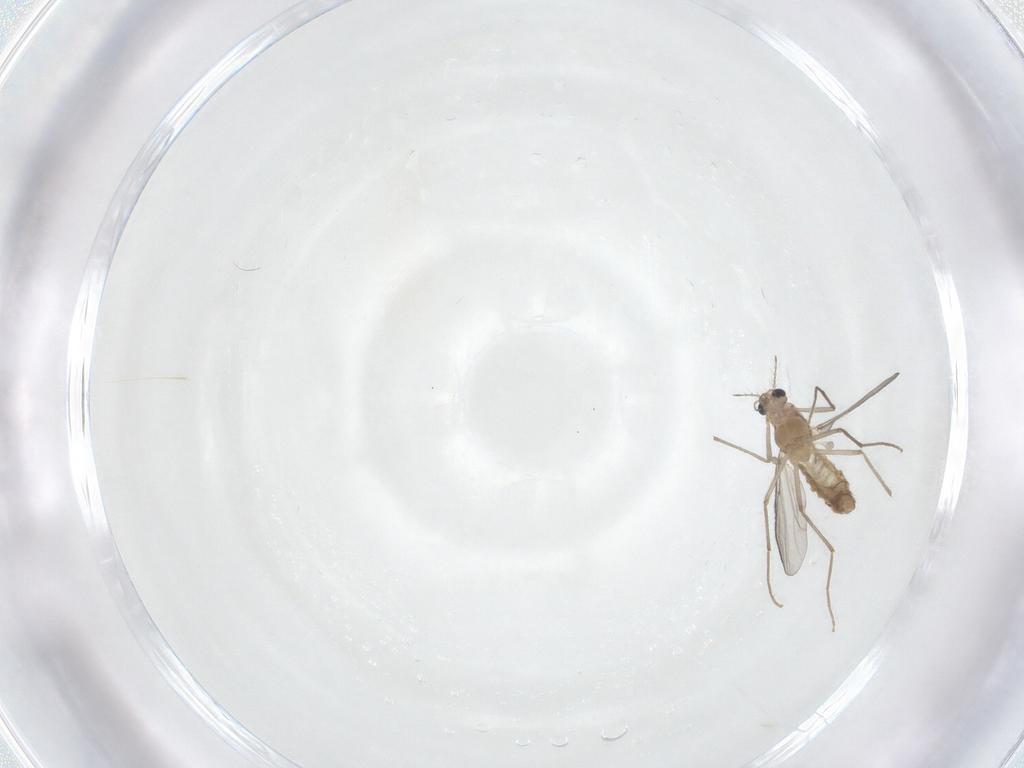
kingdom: Animalia
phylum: Arthropoda
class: Insecta
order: Diptera
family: Chironomidae
